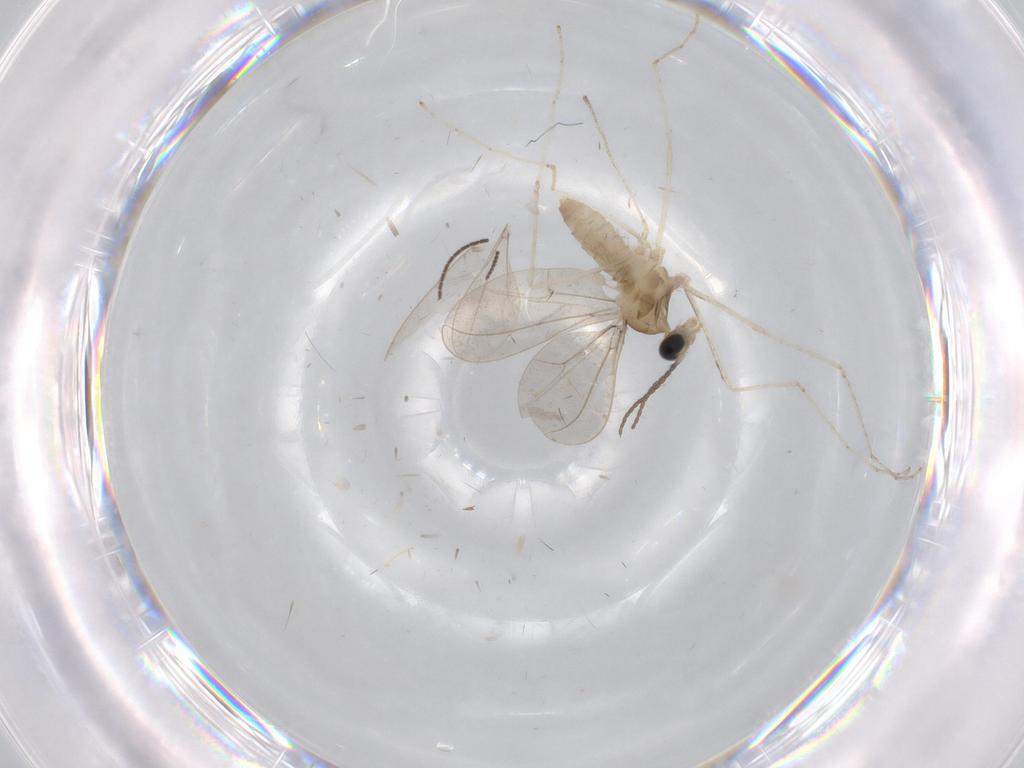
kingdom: Animalia
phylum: Arthropoda
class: Insecta
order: Diptera
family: Cecidomyiidae
